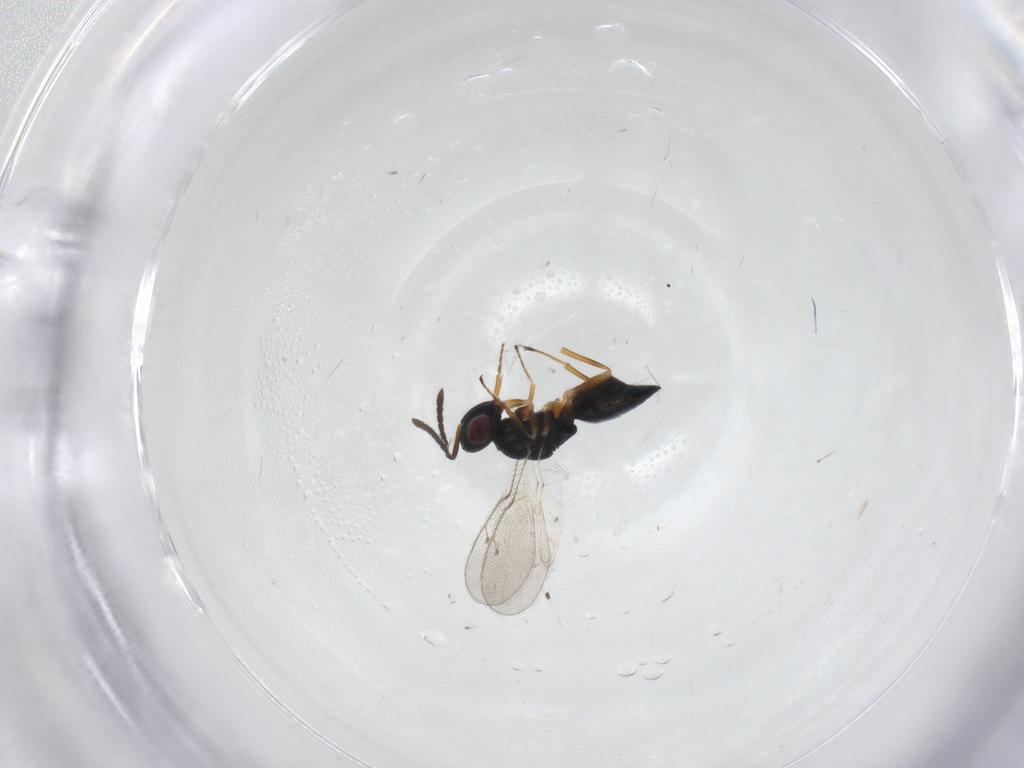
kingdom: Animalia
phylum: Arthropoda
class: Insecta
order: Hymenoptera
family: Pteromalidae
